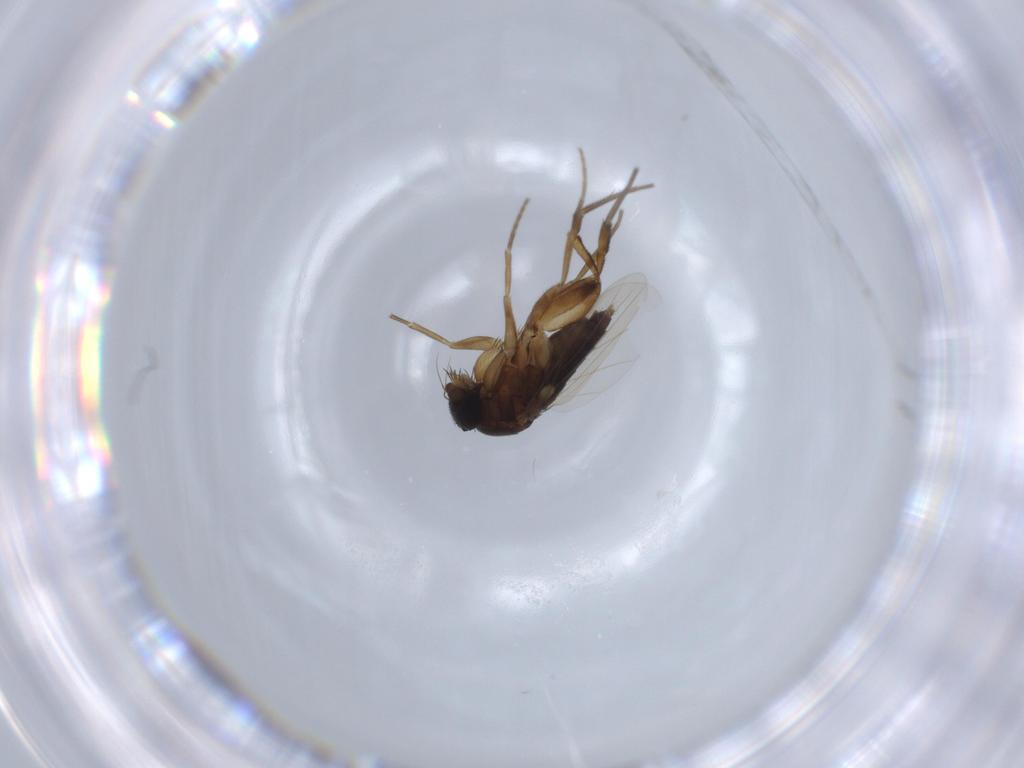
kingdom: Animalia
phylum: Arthropoda
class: Insecta
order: Diptera
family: Phoridae
